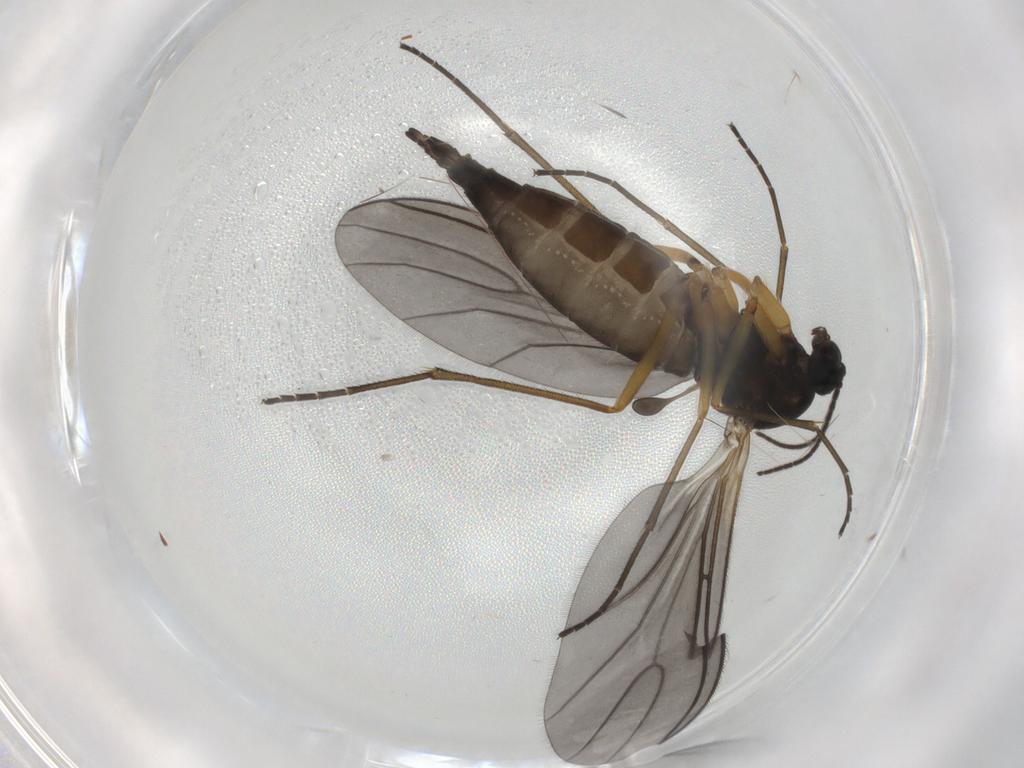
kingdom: Animalia
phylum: Arthropoda
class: Insecta
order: Diptera
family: Sciaridae
